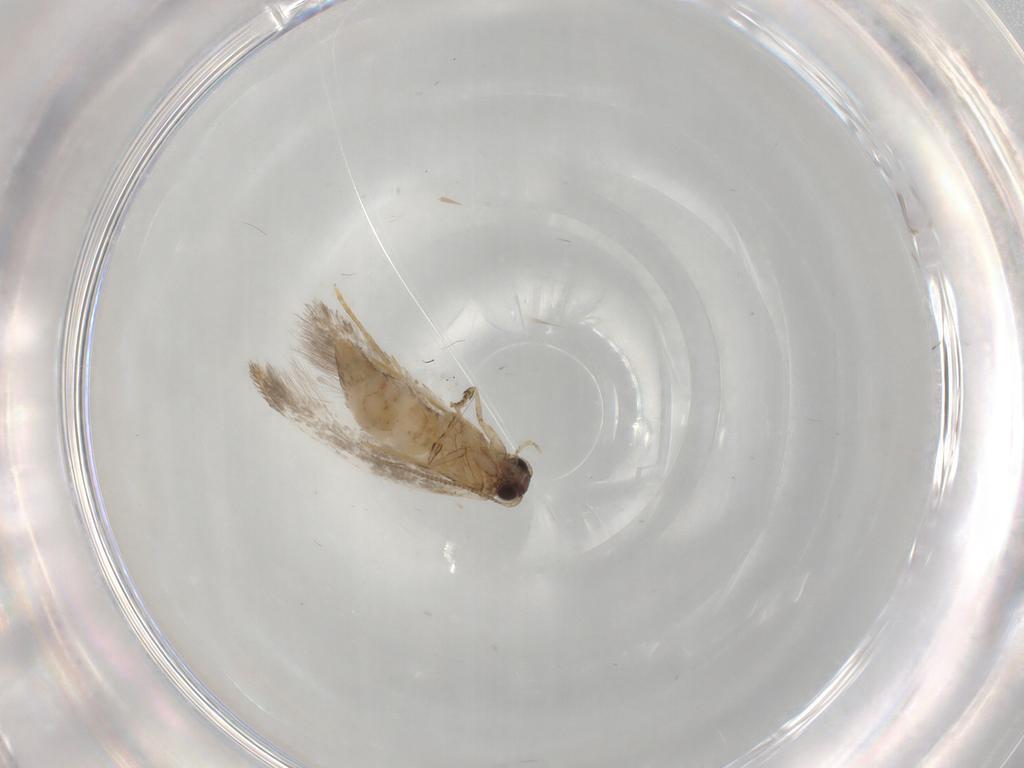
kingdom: Animalia
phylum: Arthropoda
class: Insecta
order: Lepidoptera
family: Tineidae
